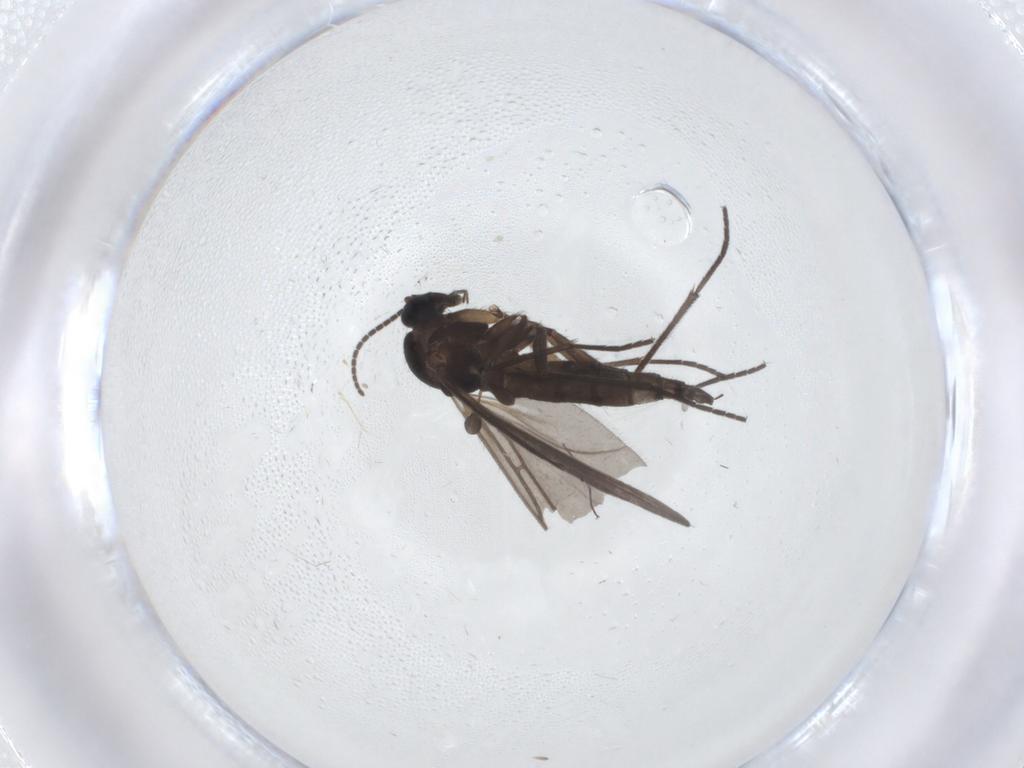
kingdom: Animalia
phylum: Arthropoda
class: Insecta
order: Diptera
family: Sciaridae
